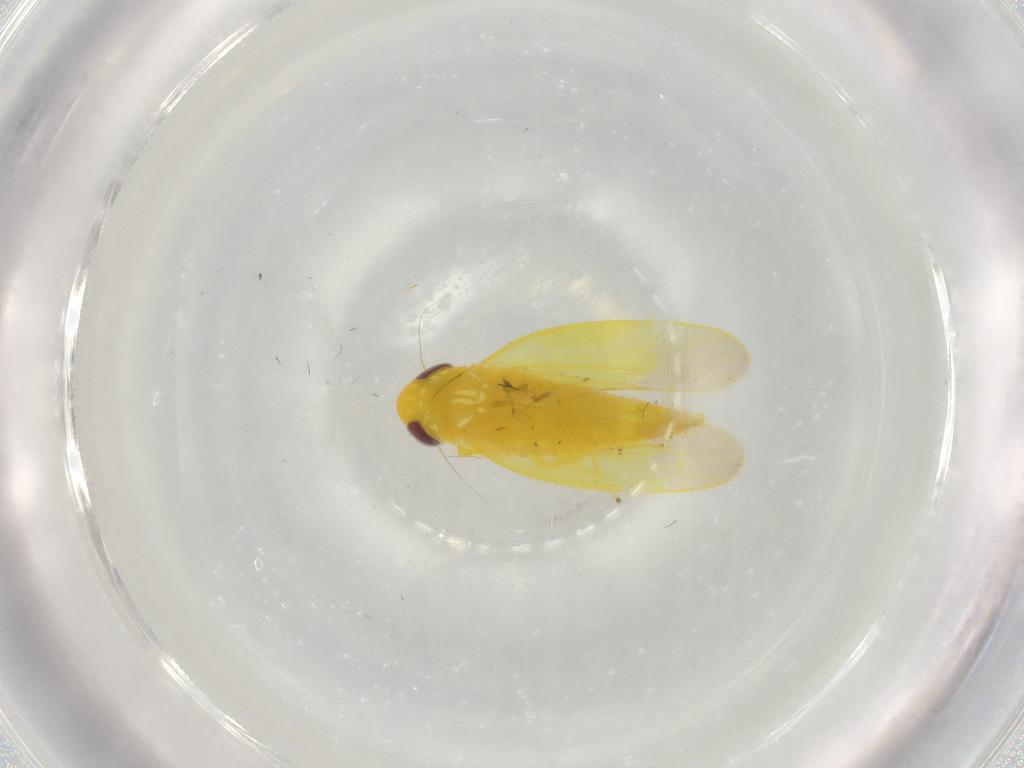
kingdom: Animalia
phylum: Arthropoda
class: Insecta
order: Hemiptera
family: Cicadellidae
